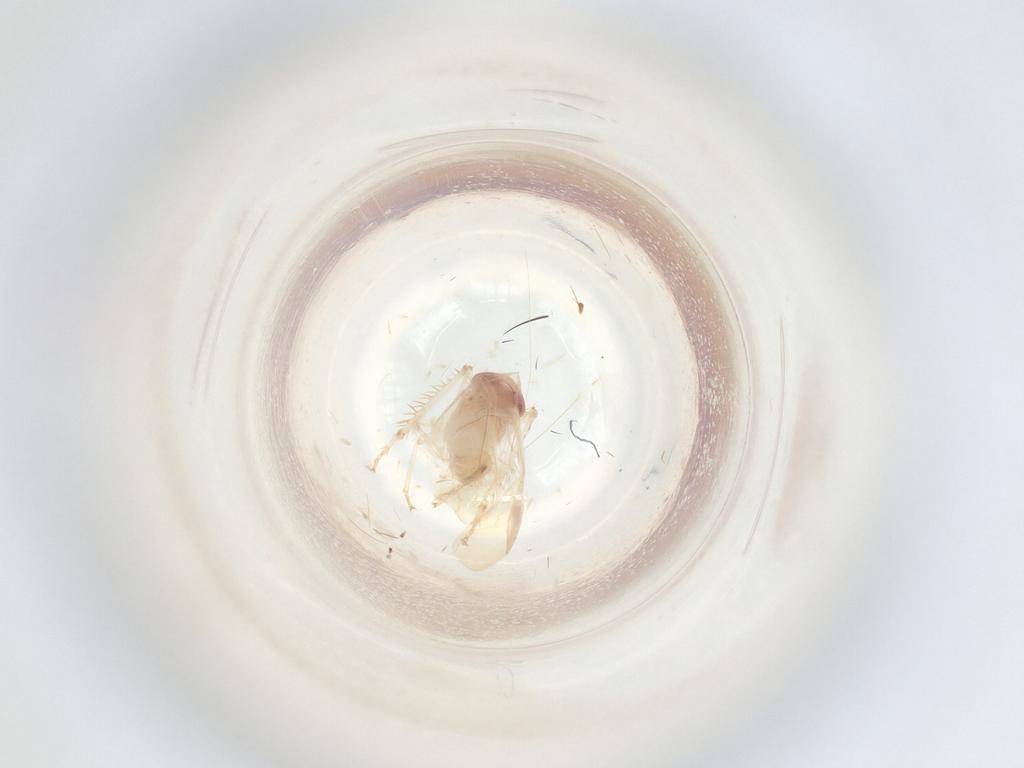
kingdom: Animalia
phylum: Arthropoda
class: Insecta
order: Hemiptera
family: Cicadellidae
